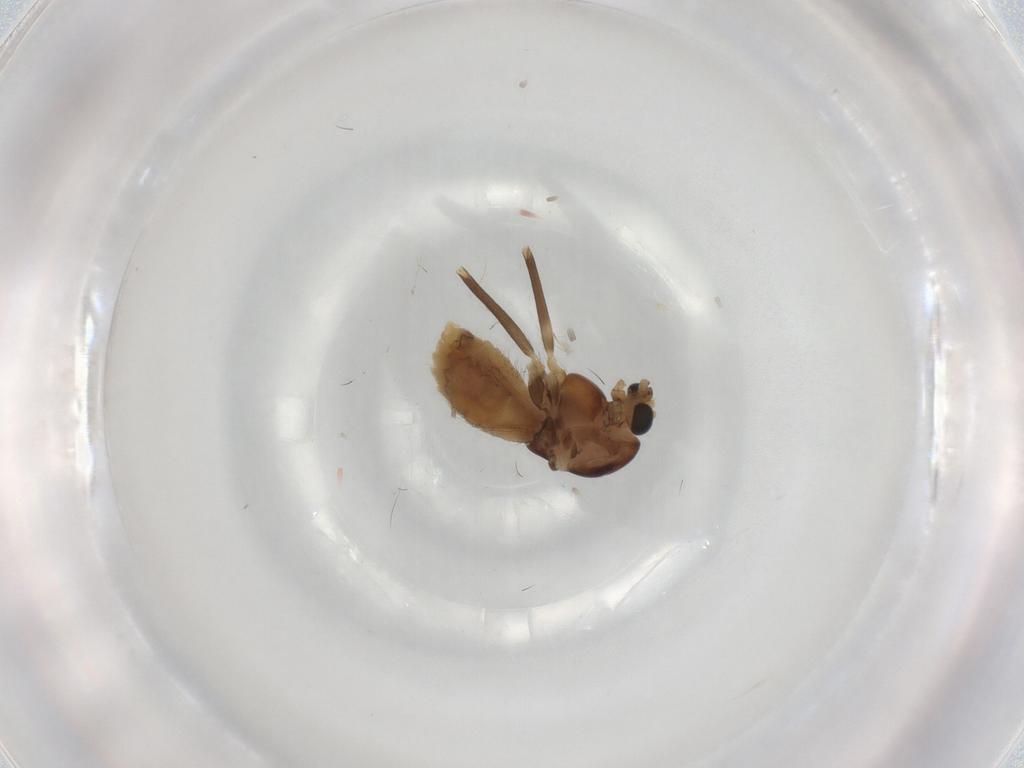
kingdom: Animalia
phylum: Arthropoda
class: Insecta
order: Diptera
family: Chironomidae
